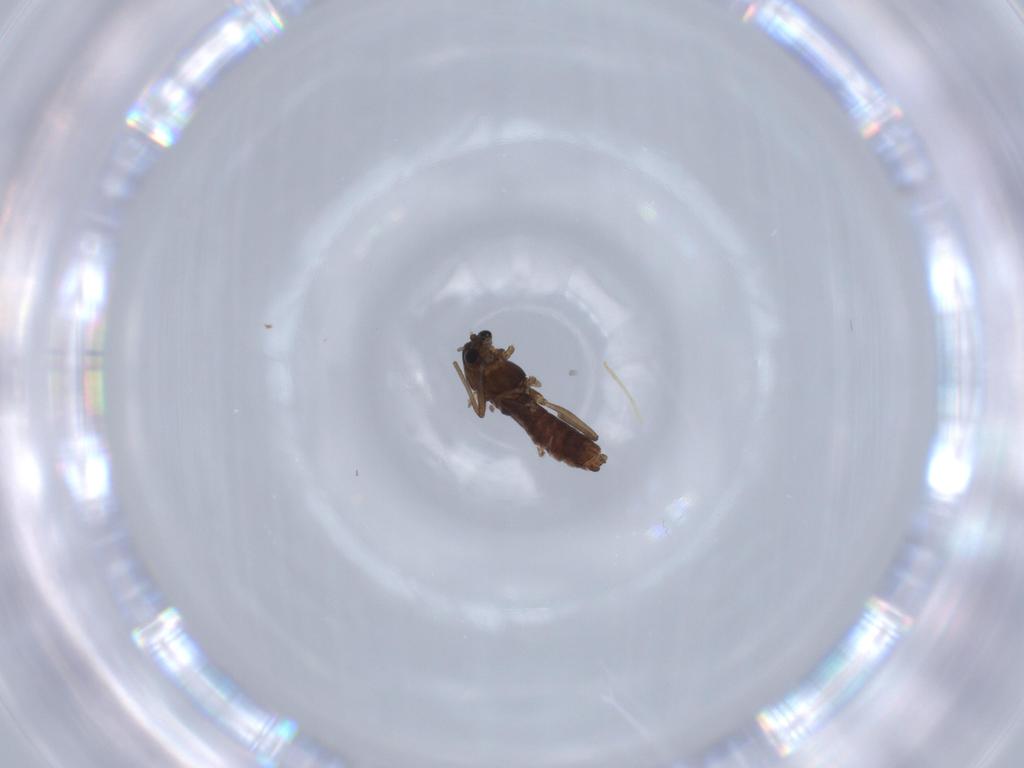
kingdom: Animalia
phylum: Arthropoda
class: Insecta
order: Diptera
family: Chironomidae
